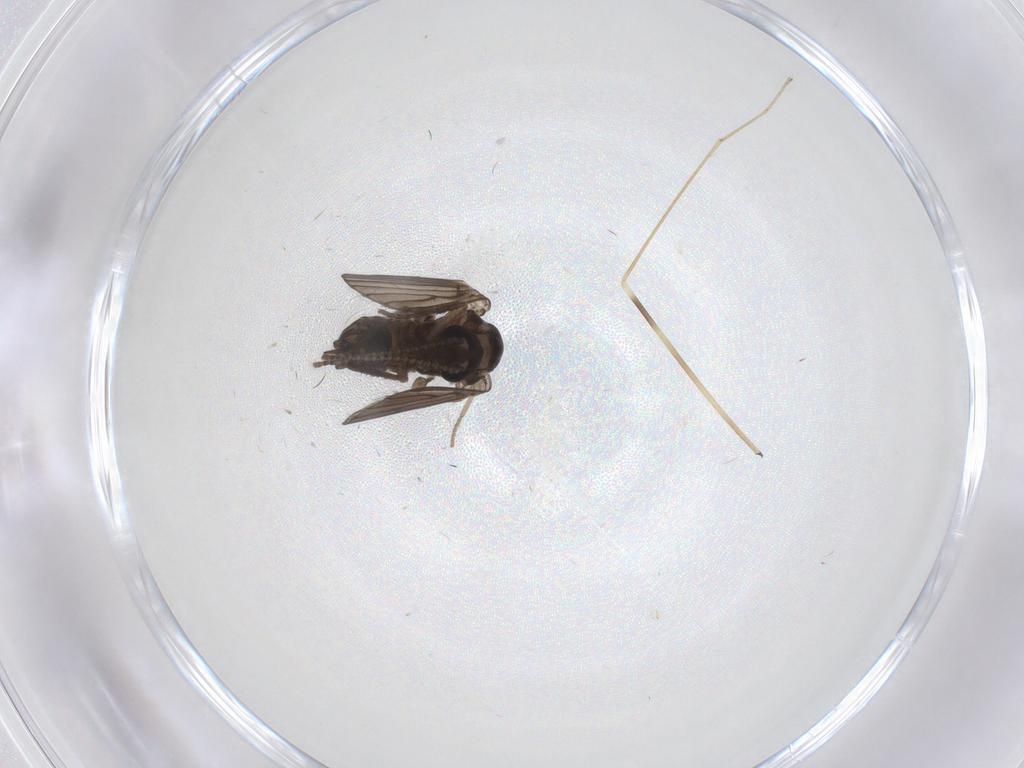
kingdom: Animalia
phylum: Arthropoda
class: Insecta
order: Diptera
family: Psychodidae
